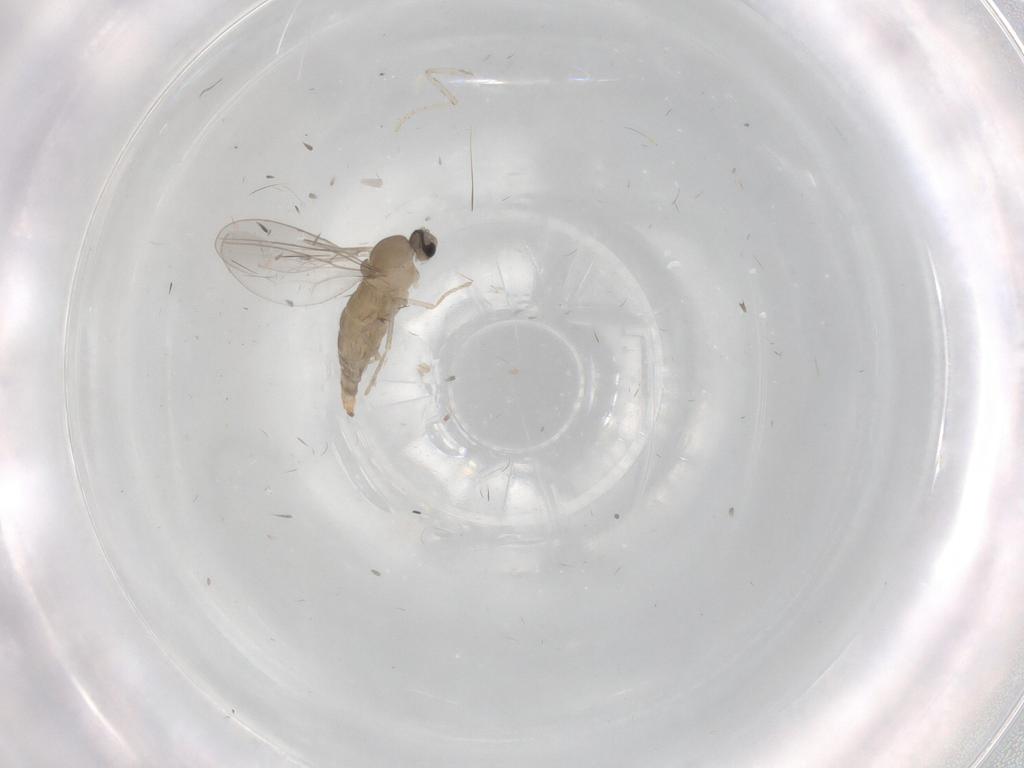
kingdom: Animalia
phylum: Arthropoda
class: Insecta
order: Diptera
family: Cecidomyiidae
